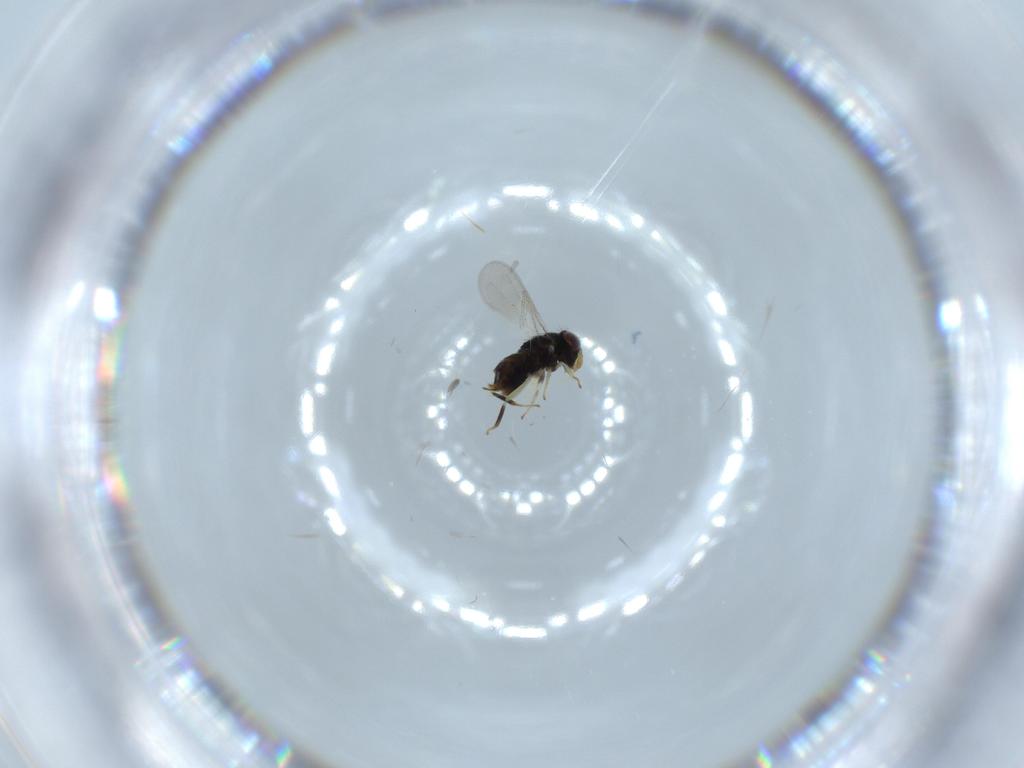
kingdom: Animalia
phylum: Arthropoda
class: Insecta
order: Hymenoptera
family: Aphelinidae
